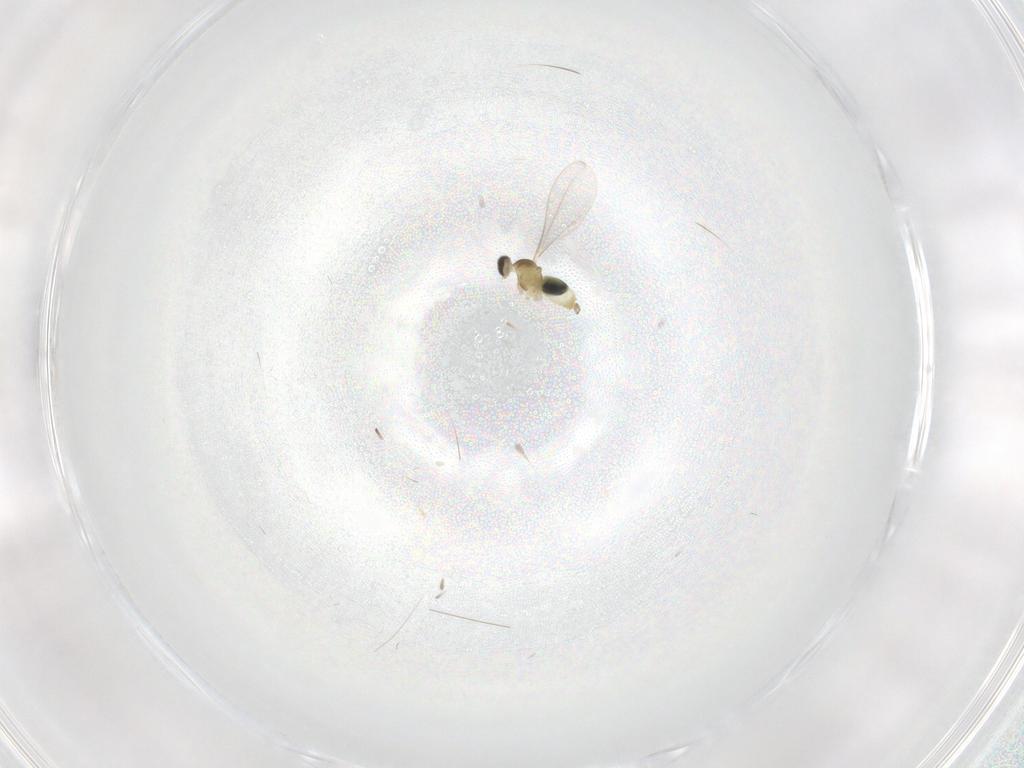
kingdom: Animalia
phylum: Arthropoda
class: Insecta
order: Diptera
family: Cecidomyiidae
